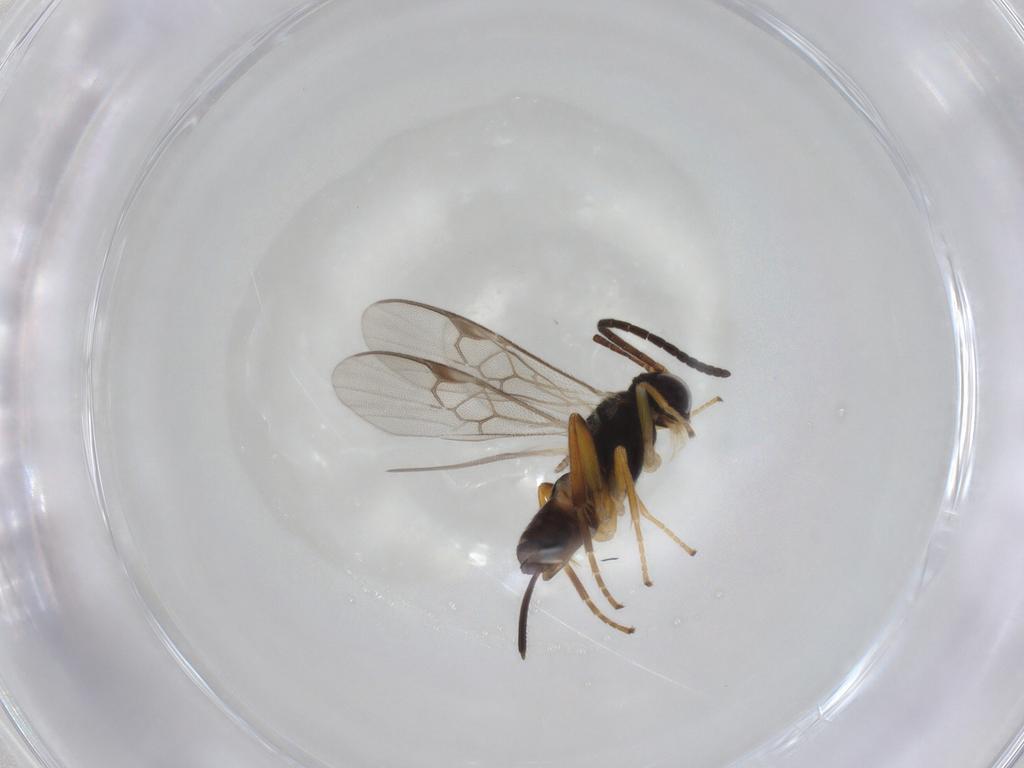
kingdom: Animalia
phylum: Arthropoda
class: Insecta
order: Hymenoptera
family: Braconidae
